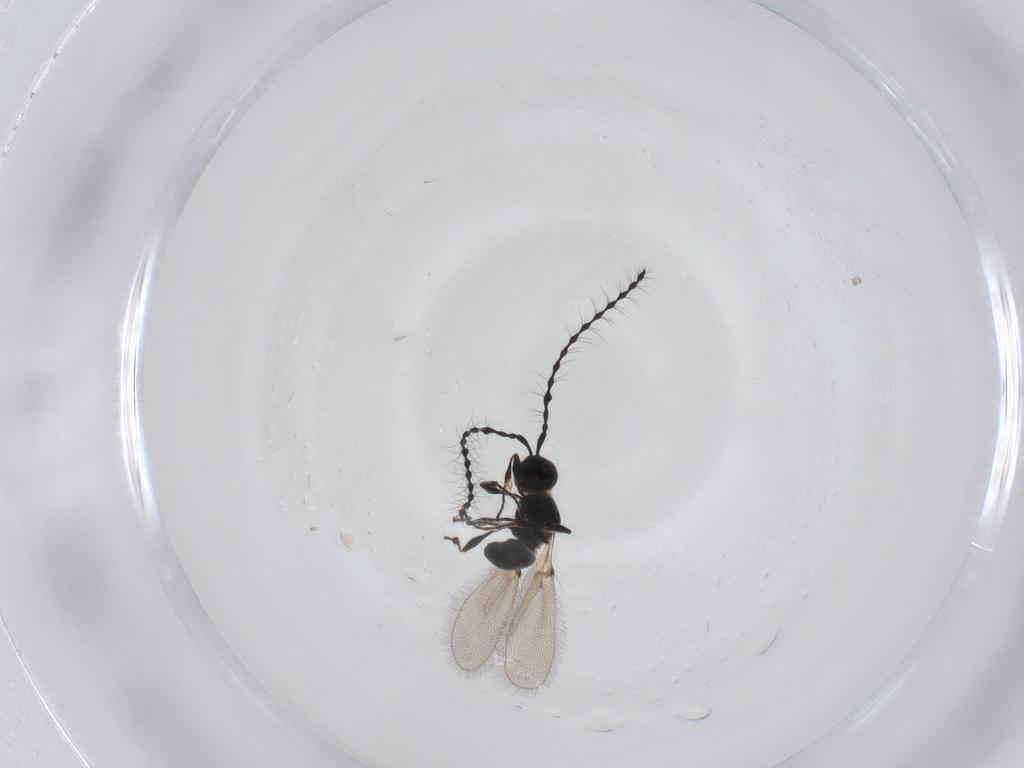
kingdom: Animalia
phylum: Arthropoda
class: Insecta
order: Hymenoptera
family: Diapriidae
